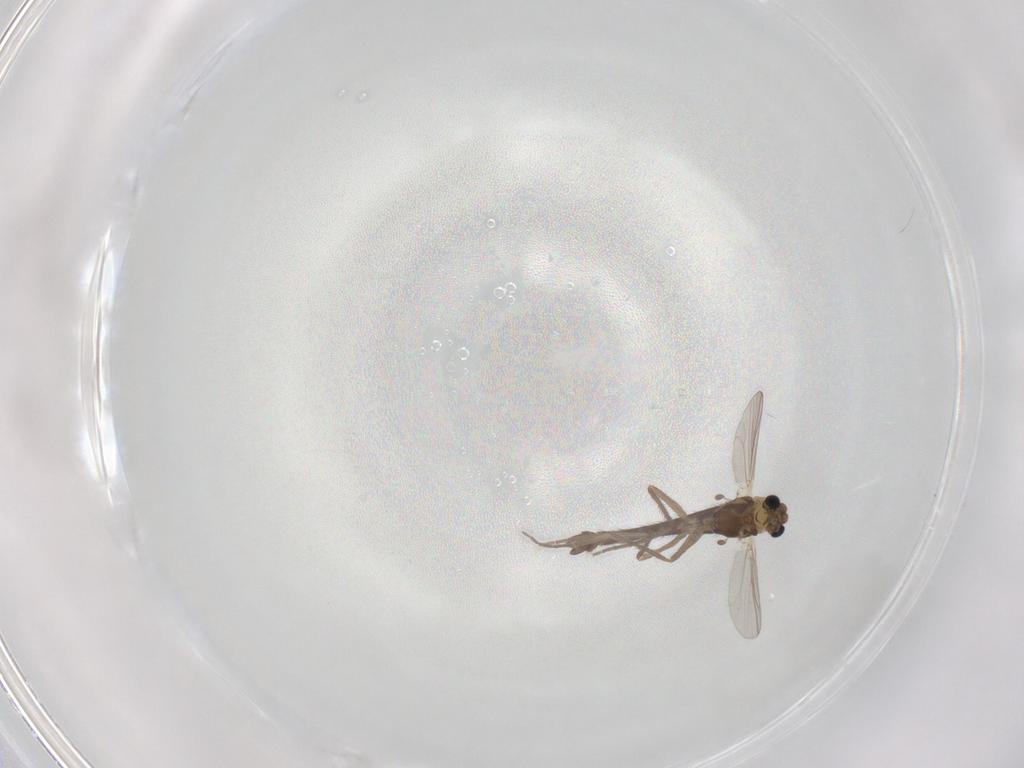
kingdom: Animalia
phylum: Arthropoda
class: Insecta
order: Diptera
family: Chironomidae
